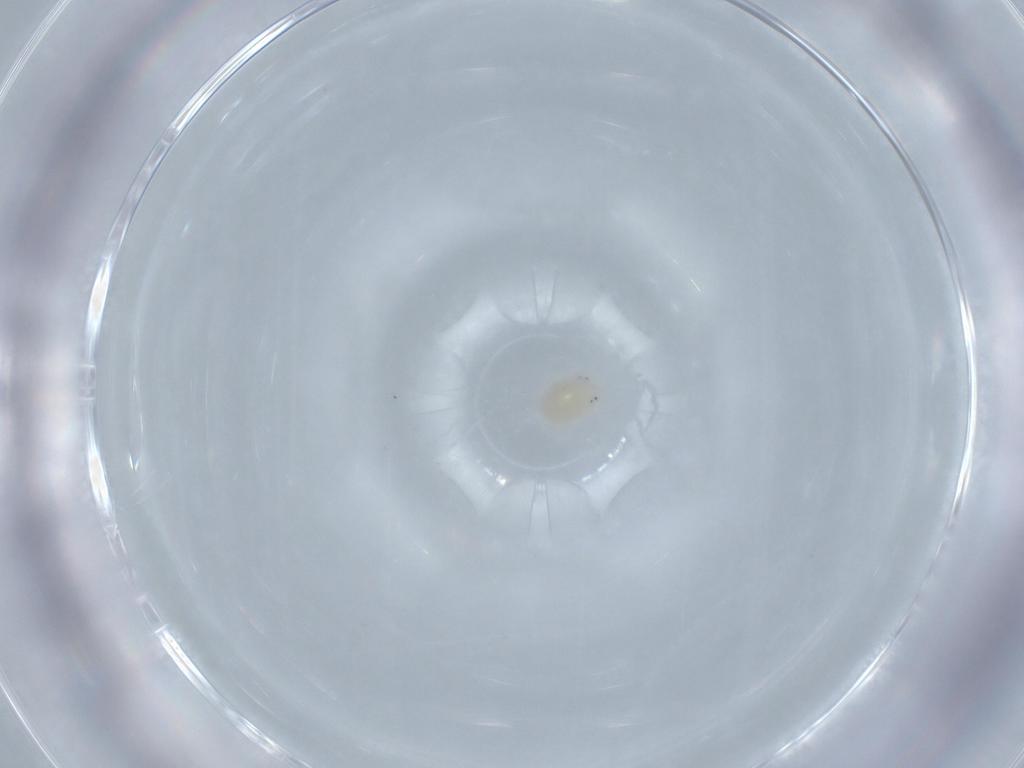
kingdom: Animalia
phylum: Arthropoda
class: Arachnida
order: Trombidiformes
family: Hydryphantidae
